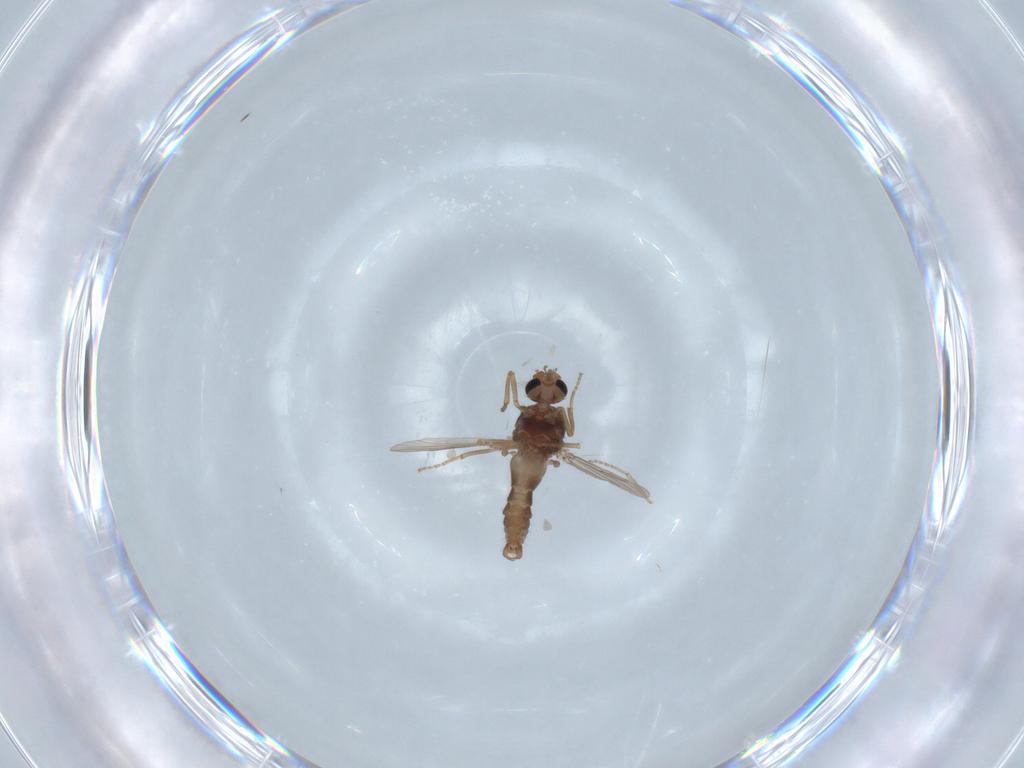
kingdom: Animalia
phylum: Arthropoda
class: Insecta
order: Diptera
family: Ceratopogonidae
